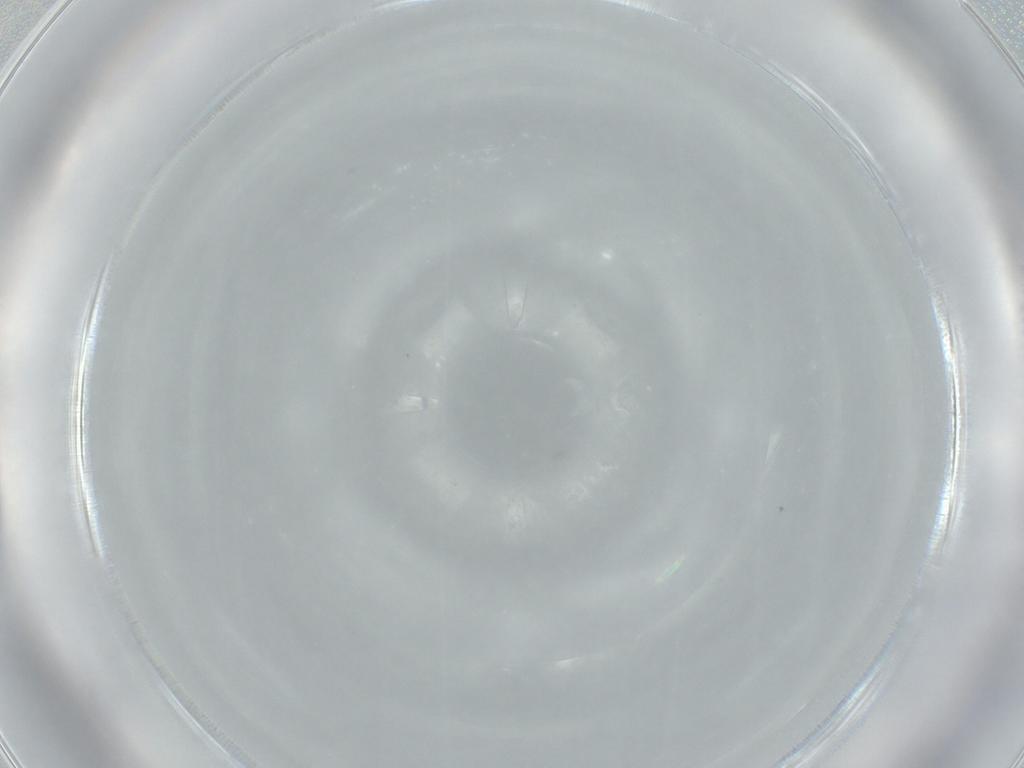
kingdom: Animalia
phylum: Arthropoda
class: Insecta
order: Diptera
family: Bibionidae
